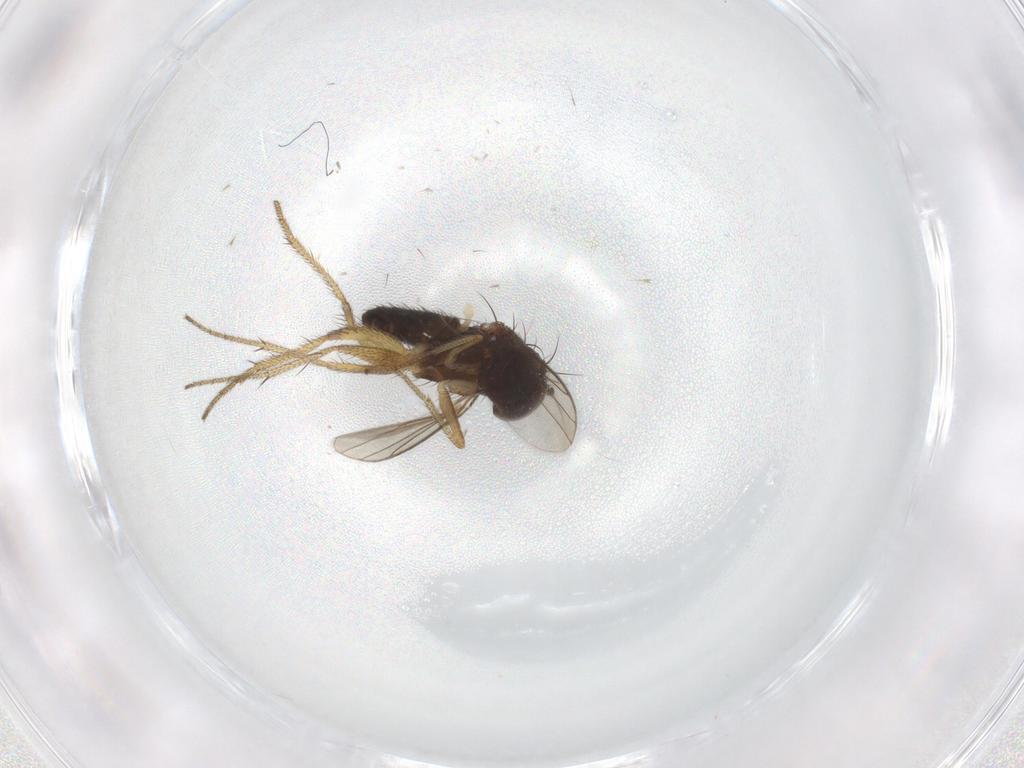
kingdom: Animalia
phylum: Arthropoda
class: Insecta
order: Diptera
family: Dolichopodidae
